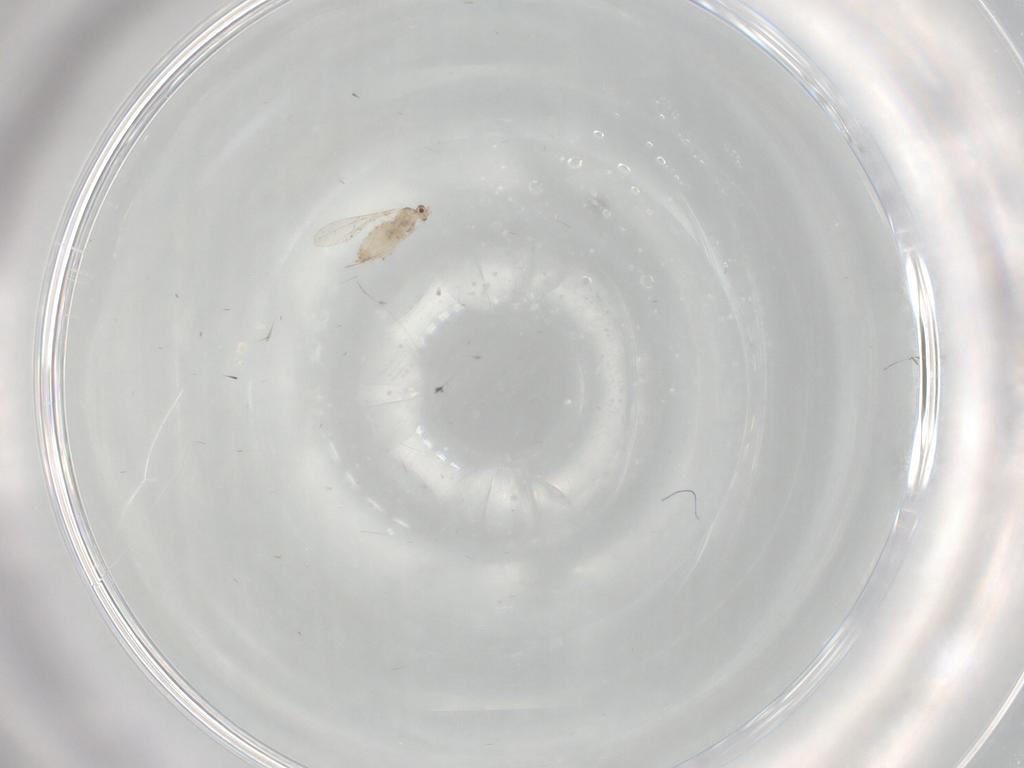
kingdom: Animalia
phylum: Arthropoda
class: Insecta
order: Diptera
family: Cecidomyiidae
